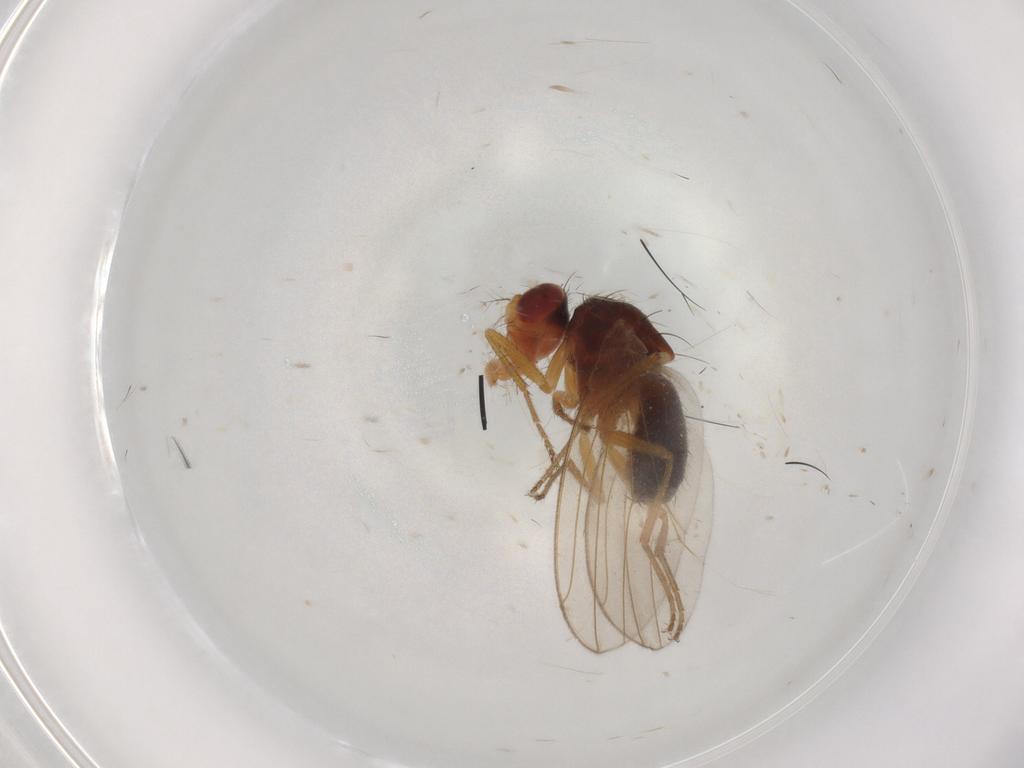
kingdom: Animalia
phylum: Arthropoda
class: Insecta
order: Diptera
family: Drosophilidae
